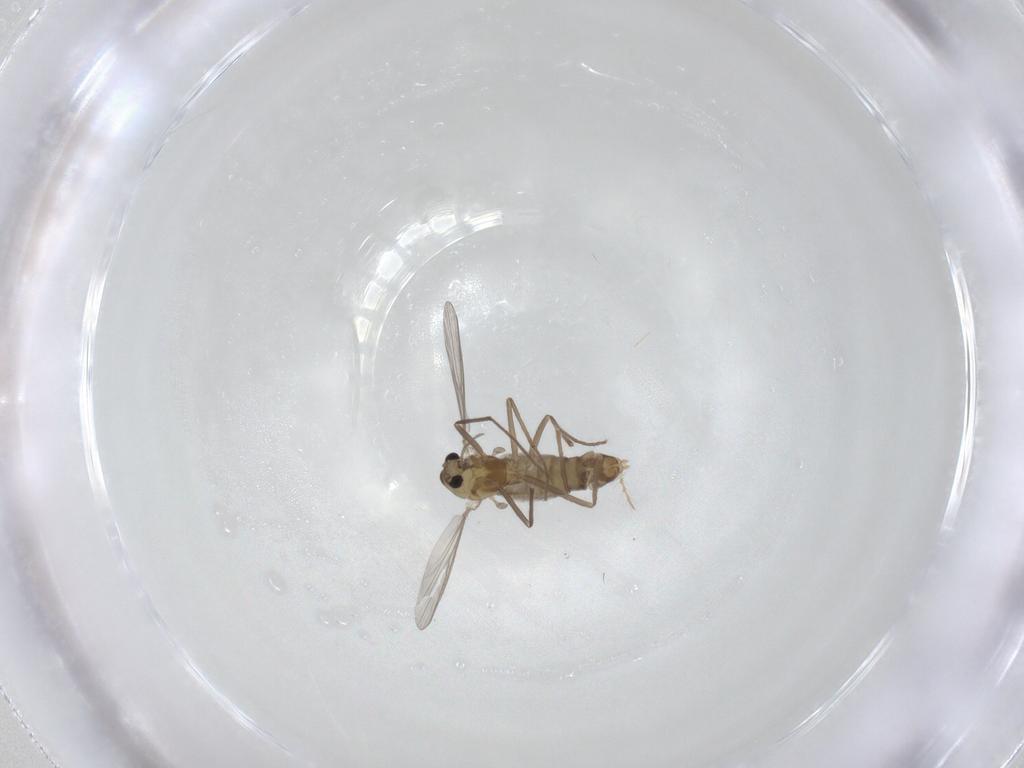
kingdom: Animalia
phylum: Arthropoda
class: Insecta
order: Diptera
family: Chironomidae
